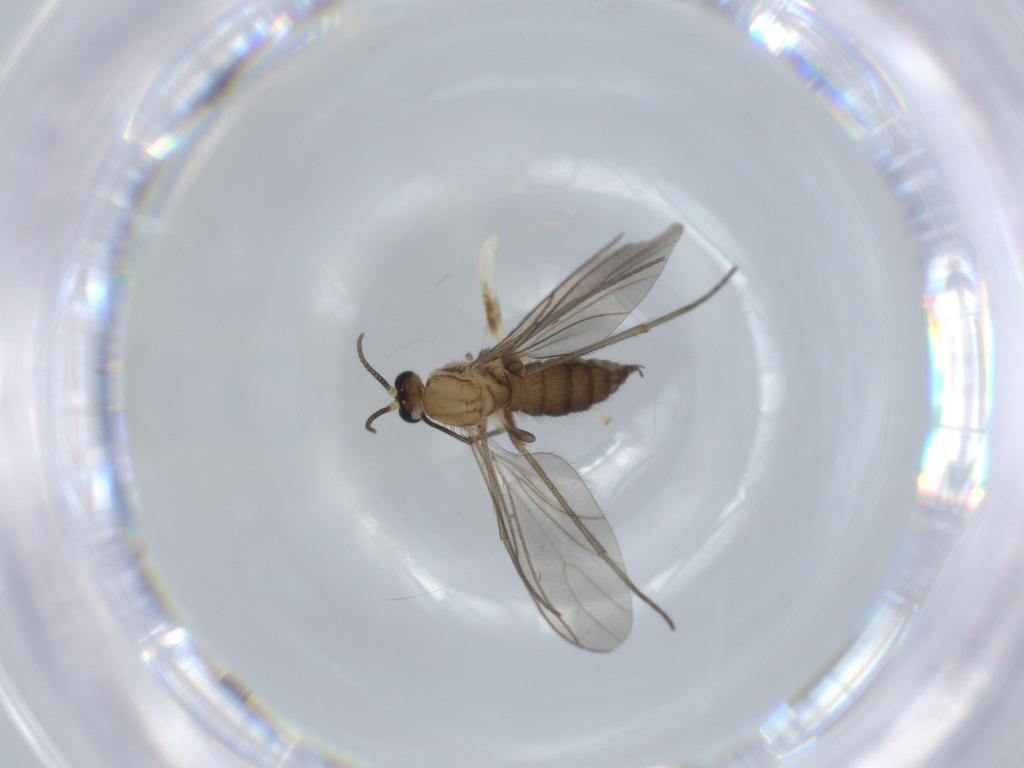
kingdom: Animalia
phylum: Arthropoda
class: Insecta
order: Diptera
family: Sciaridae
